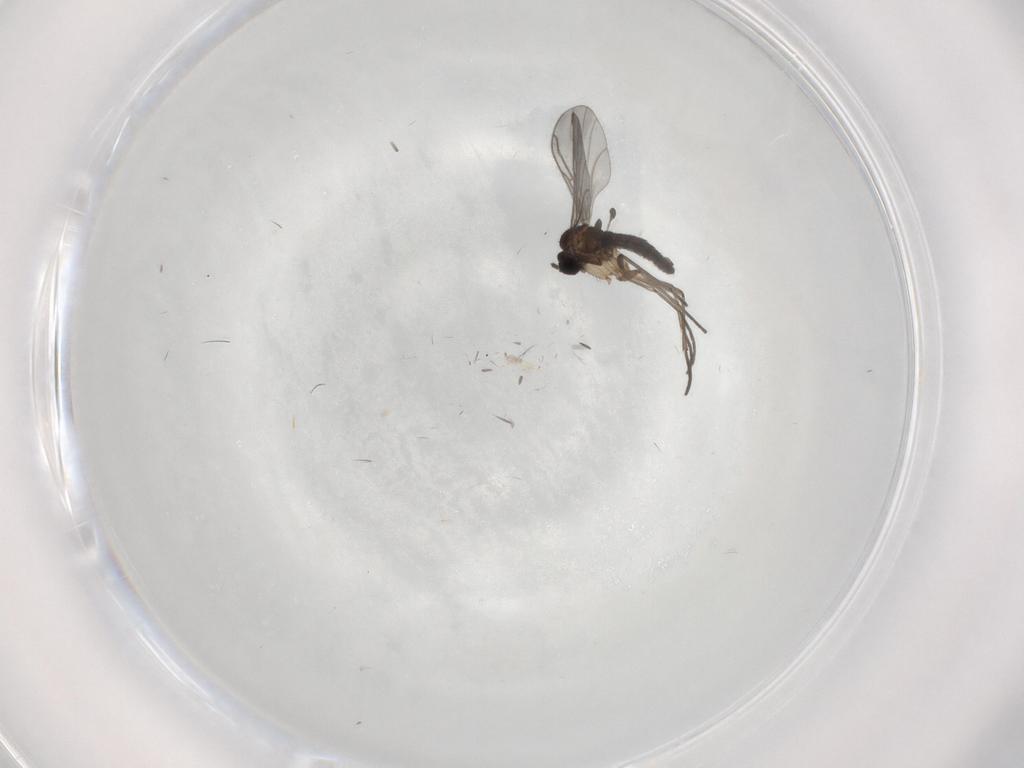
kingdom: Animalia
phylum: Arthropoda
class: Insecta
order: Diptera
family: Sciaridae
